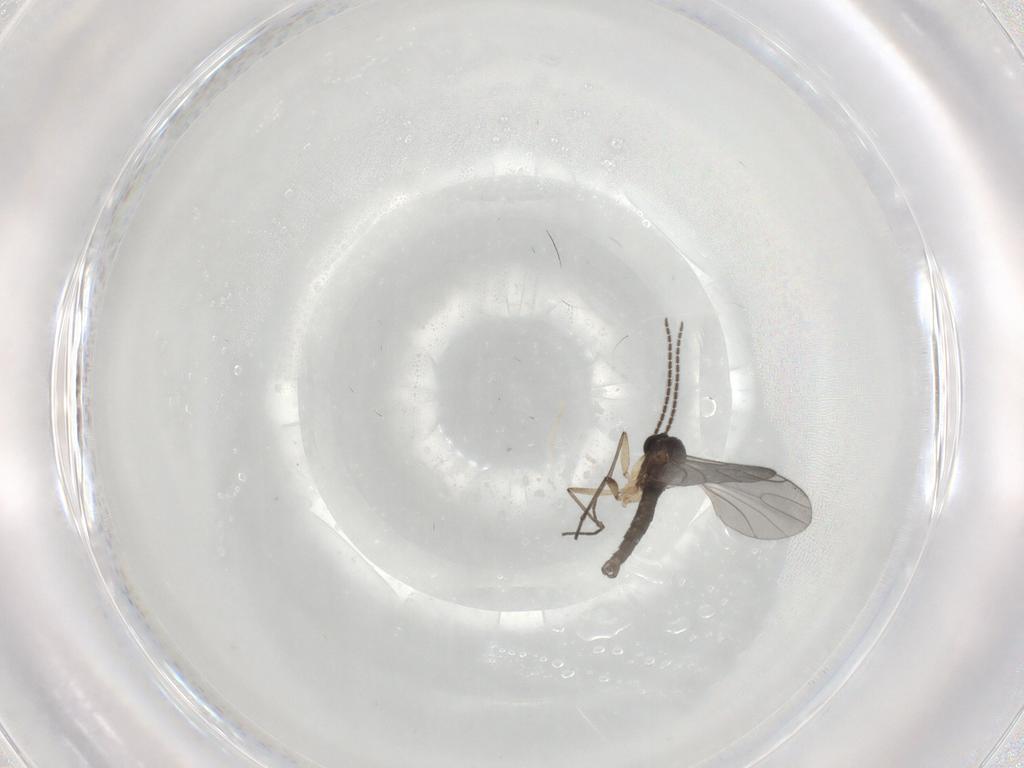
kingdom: Animalia
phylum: Arthropoda
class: Insecta
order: Diptera
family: Sciaridae
